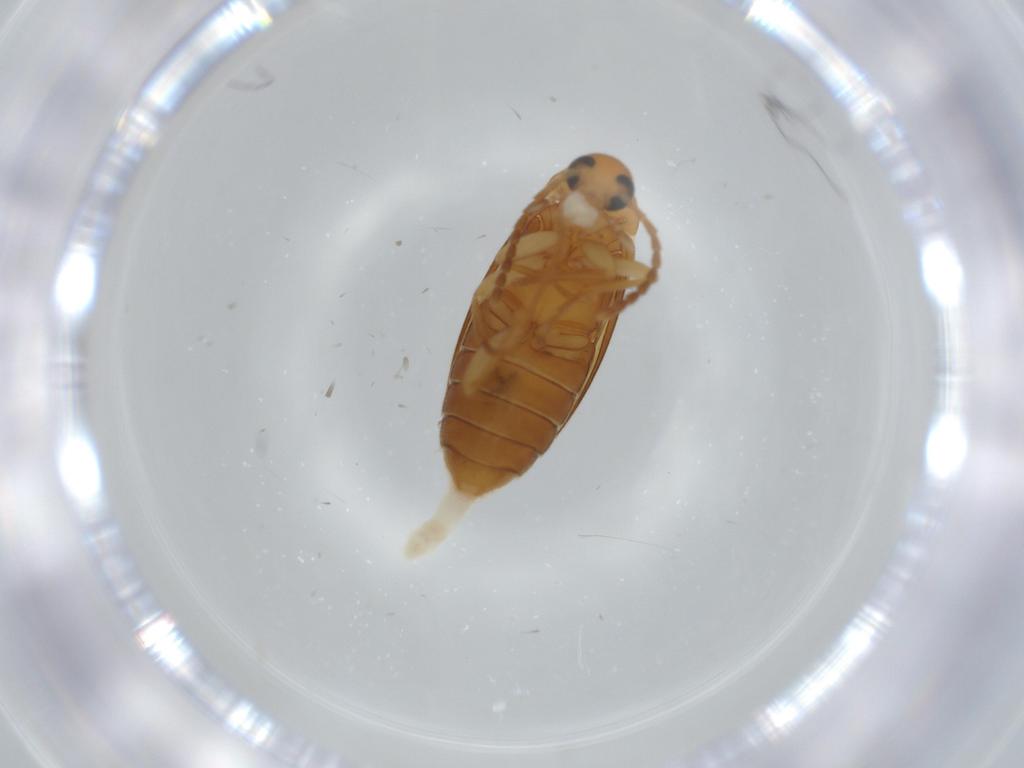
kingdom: Animalia
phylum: Arthropoda
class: Insecta
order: Coleoptera
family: Scraptiidae
